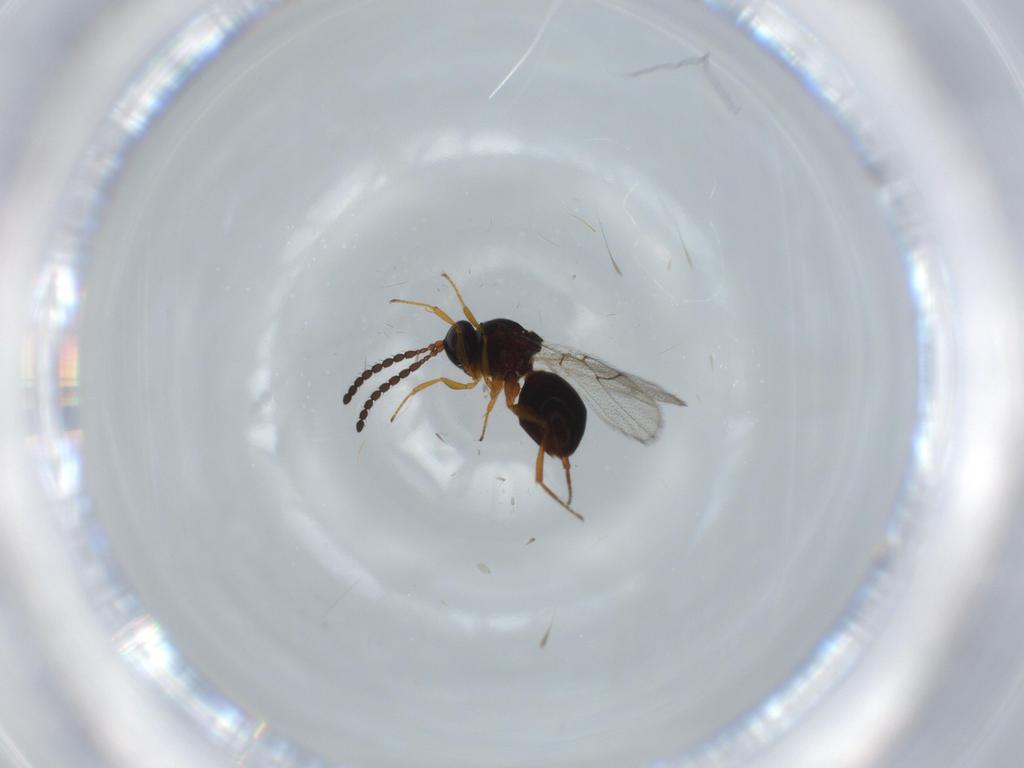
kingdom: Animalia
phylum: Arthropoda
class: Insecta
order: Hymenoptera
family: Figitidae
